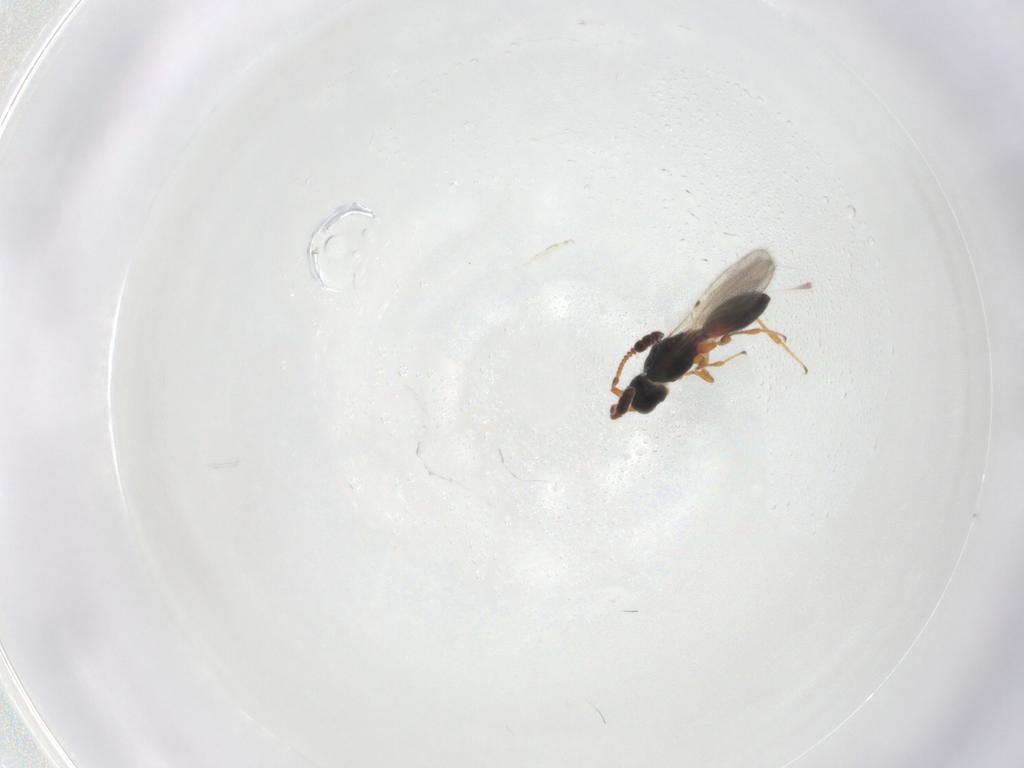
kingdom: Animalia
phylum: Arthropoda
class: Insecta
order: Hymenoptera
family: Diapriidae
